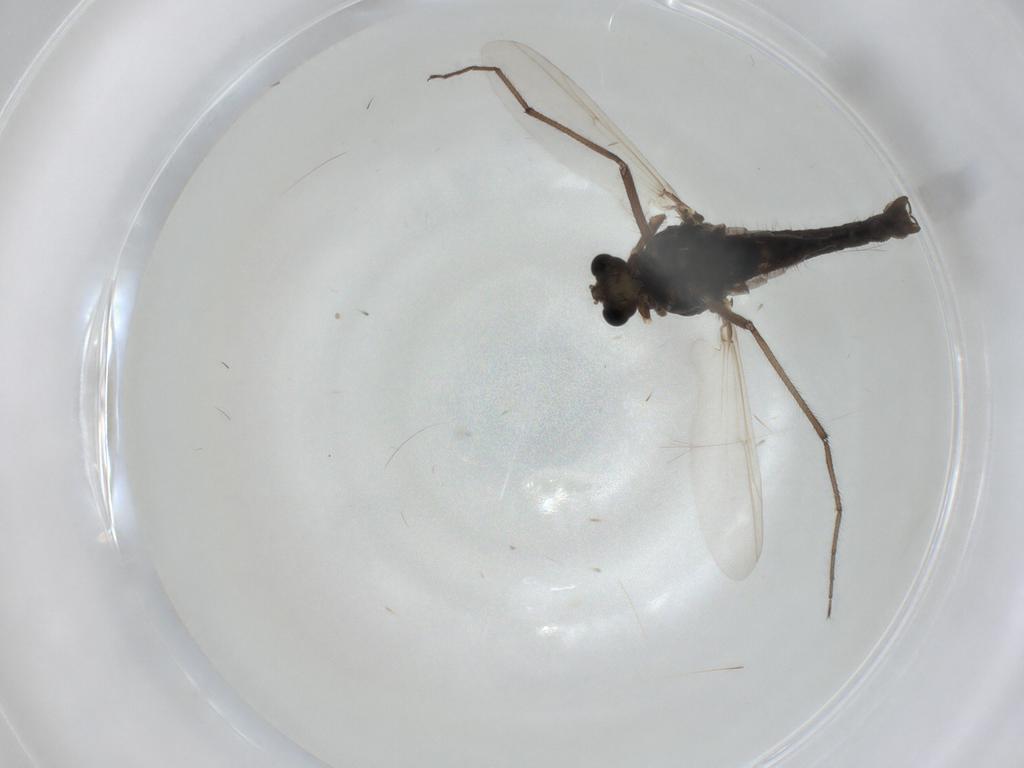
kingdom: Animalia
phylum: Arthropoda
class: Insecta
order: Diptera
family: Chironomidae
